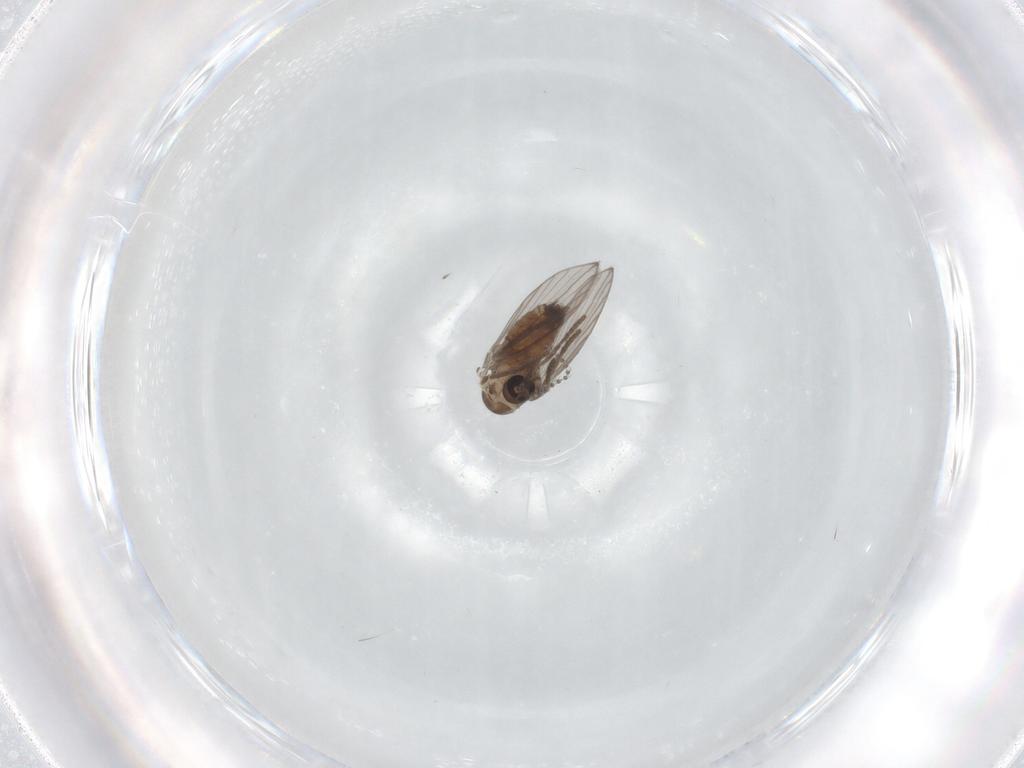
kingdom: Animalia
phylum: Arthropoda
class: Insecta
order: Diptera
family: Psychodidae
